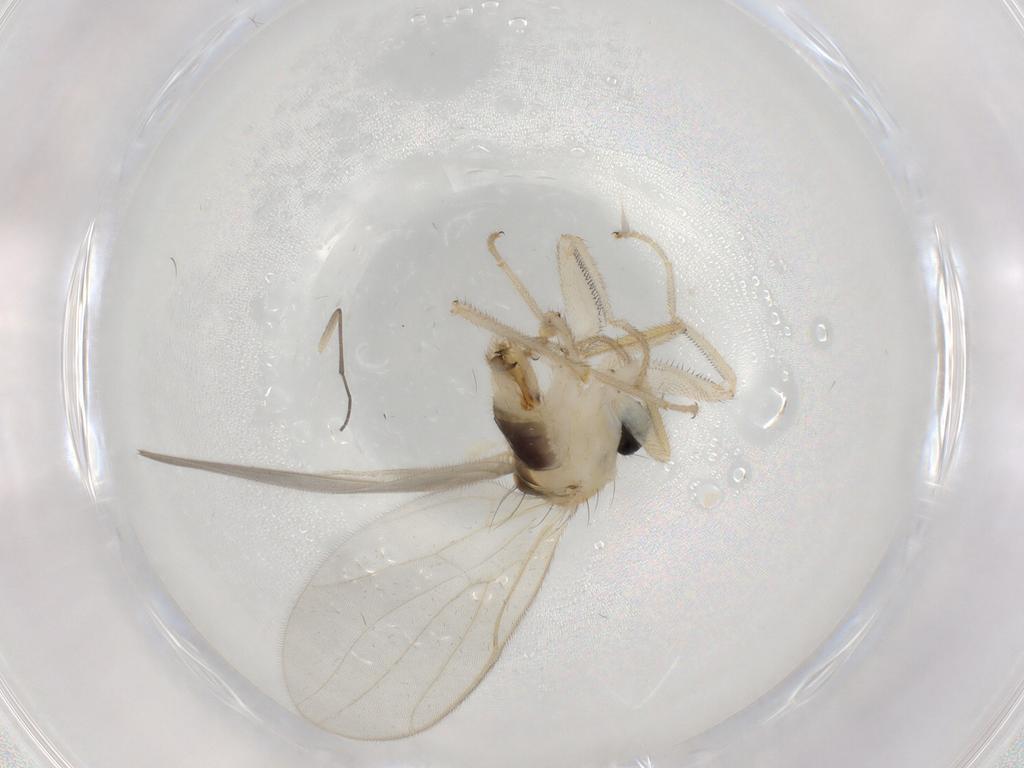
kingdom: Animalia
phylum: Arthropoda
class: Insecta
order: Diptera
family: Hybotidae
